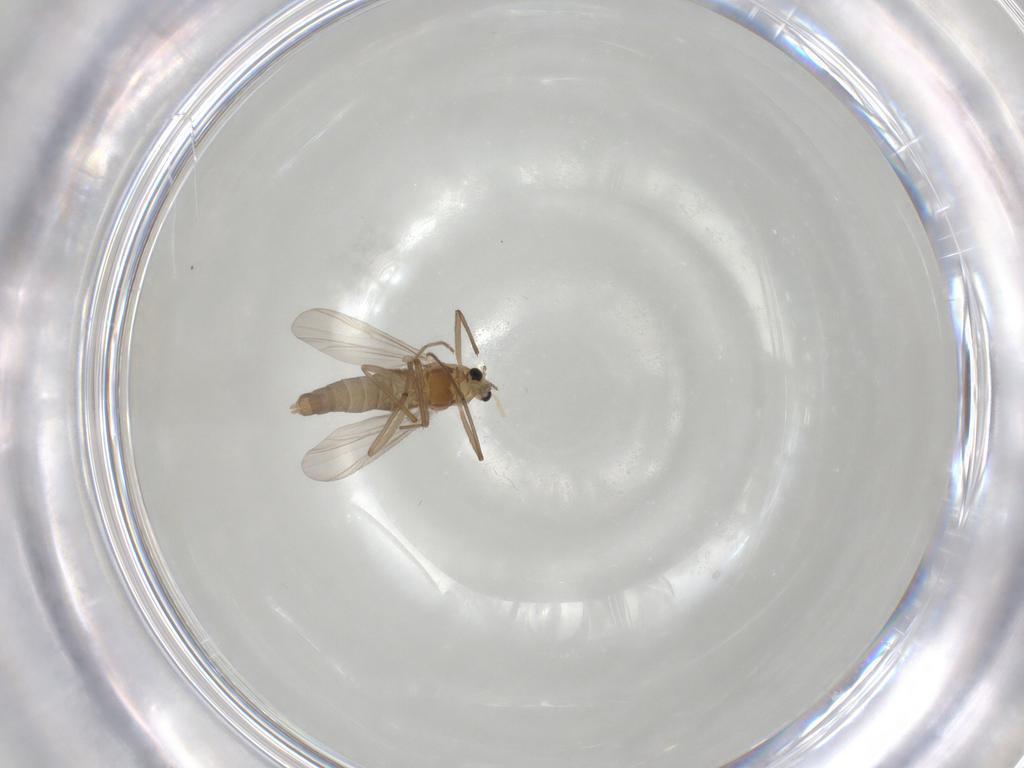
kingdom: Animalia
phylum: Arthropoda
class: Insecta
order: Diptera
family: Chironomidae
